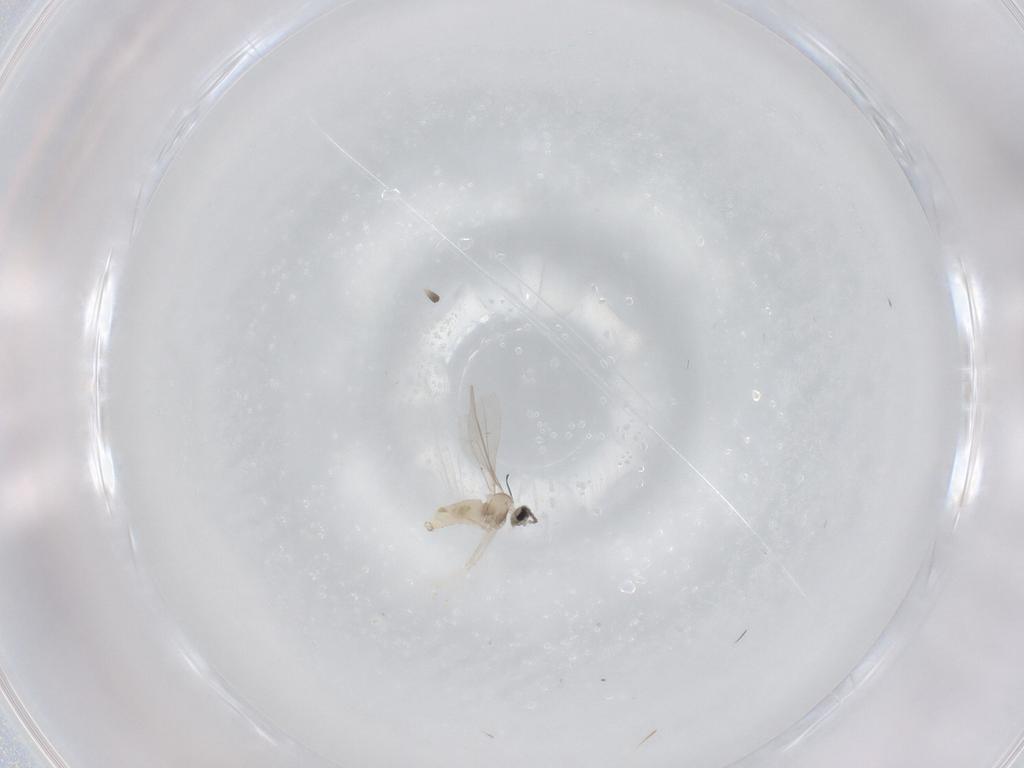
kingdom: Animalia
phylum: Arthropoda
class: Insecta
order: Diptera
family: Cecidomyiidae
